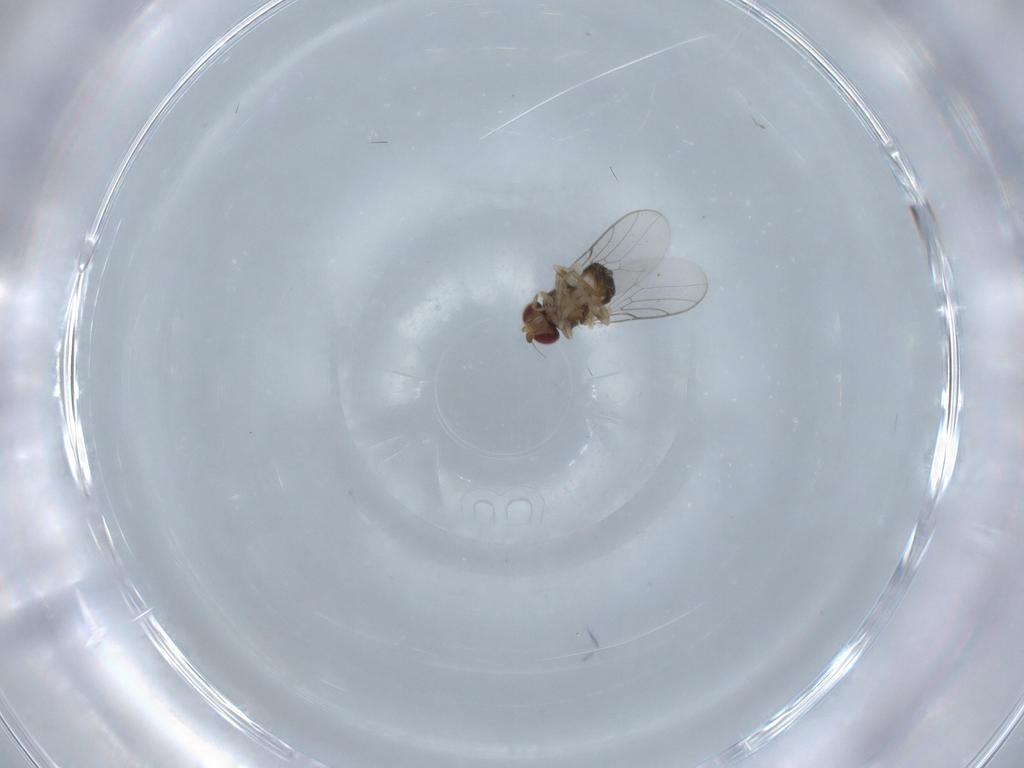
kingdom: Animalia
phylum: Arthropoda
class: Insecta
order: Diptera
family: Chloropidae
